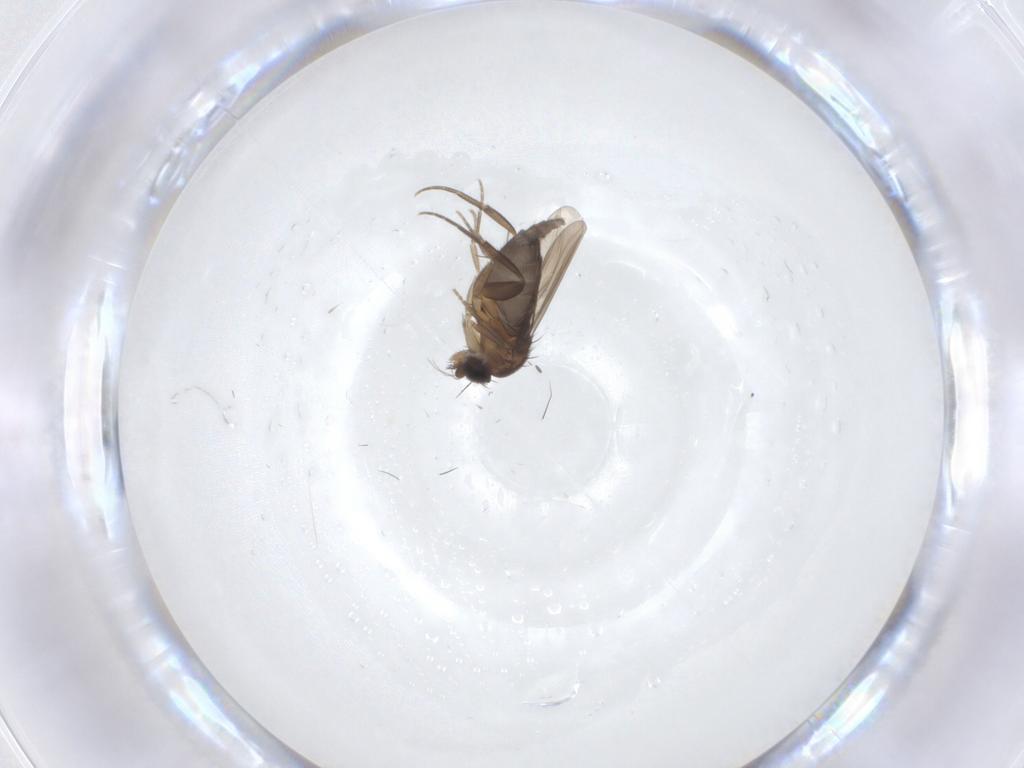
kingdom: Animalia
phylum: Arthropoda
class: Insecta
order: Diptera
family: Phoridae
